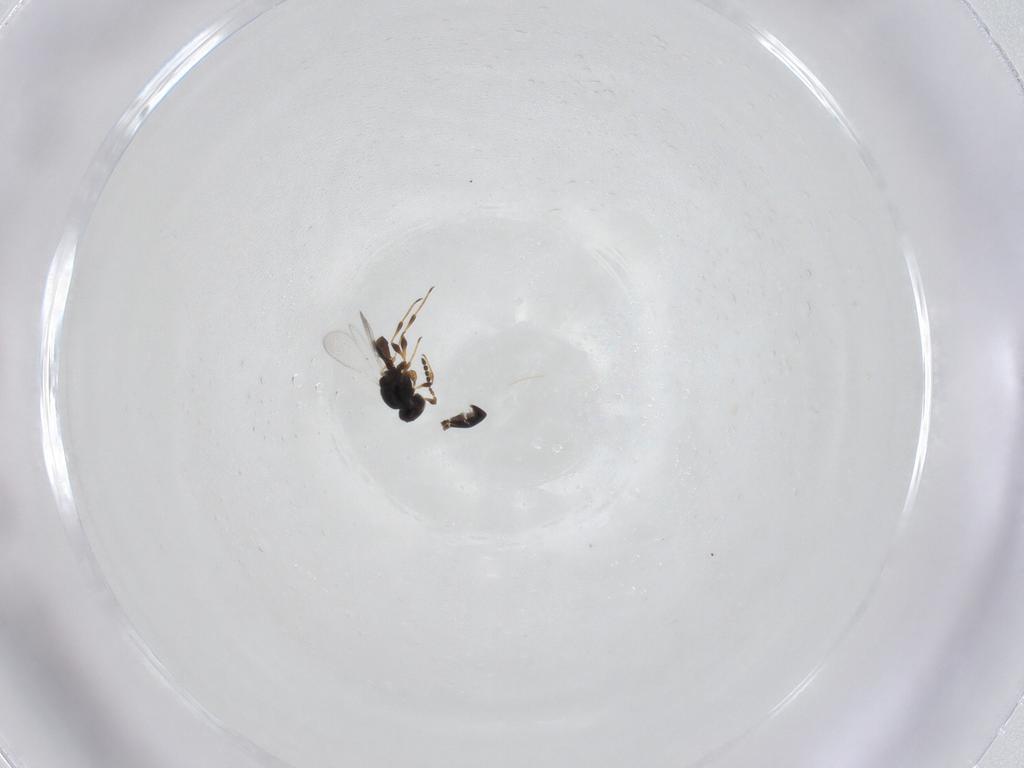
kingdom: Animalia
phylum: Arthropoda
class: Insecta
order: Hymenoptera
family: Platygastridae
